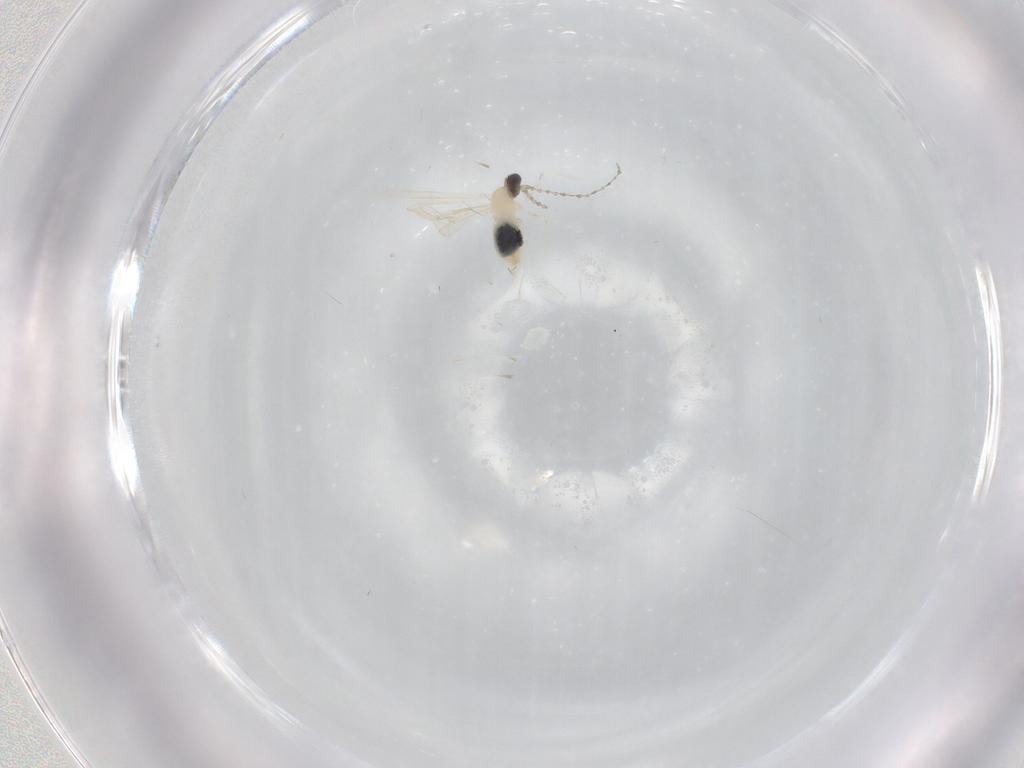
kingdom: Animalia
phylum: Arthropoda
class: Insecta
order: Diptera
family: Cecidomyiidae
